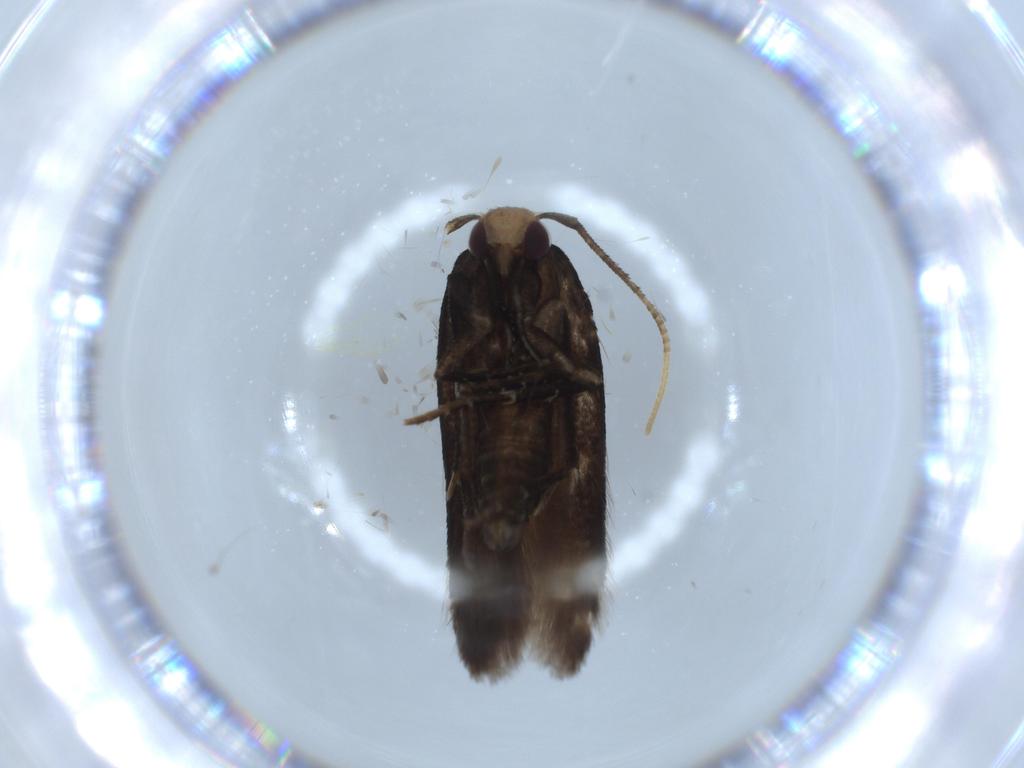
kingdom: Animalia
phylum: Arthropoda
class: Insecta
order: Lepidoptera
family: Gelechiidae
